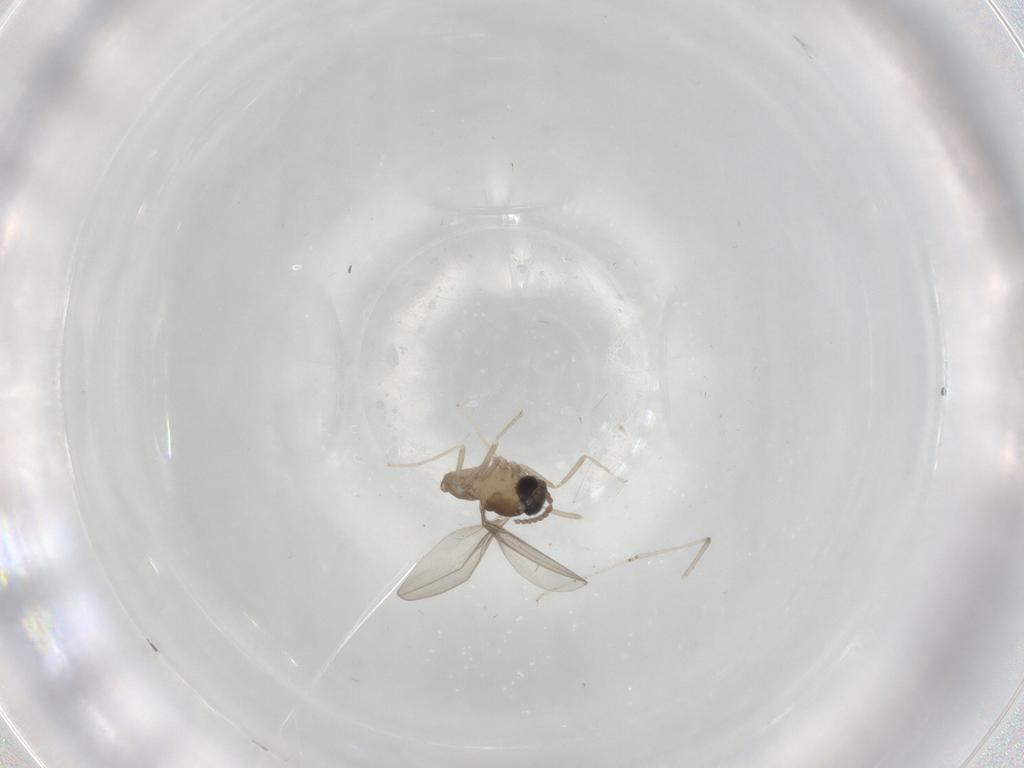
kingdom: Animalia
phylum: Arthropoda
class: Insecta
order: Diptera
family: Cecidomyiidae
